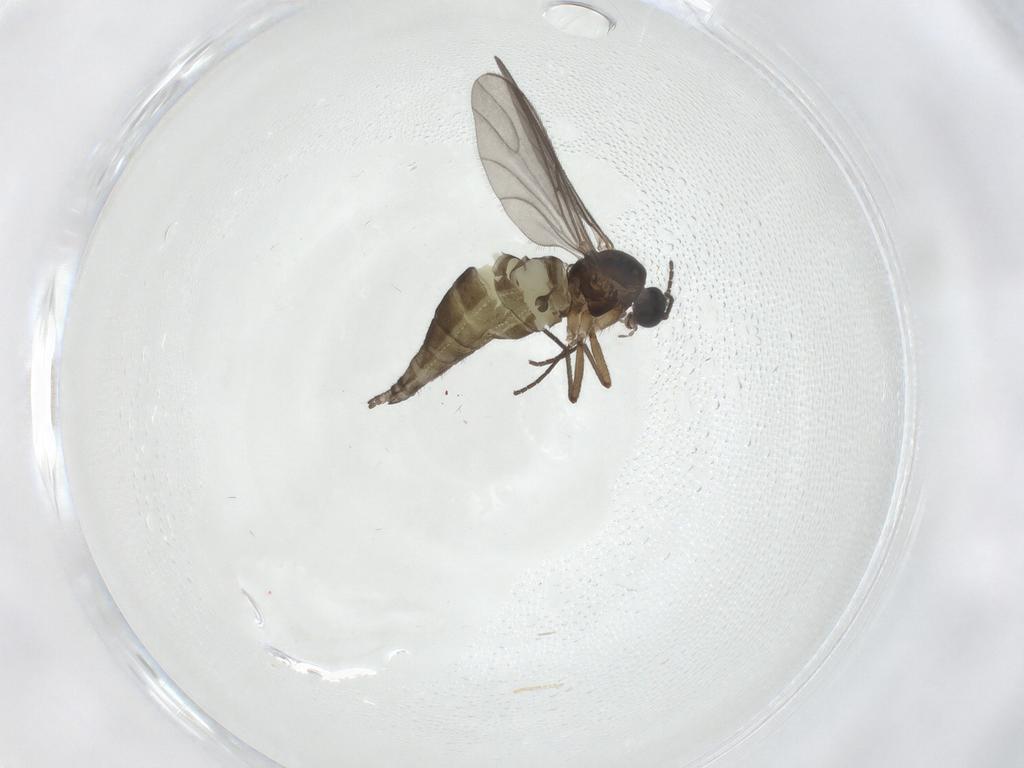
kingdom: Animalia
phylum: Arthropoda
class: Insecta
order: Diptera
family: Sciaridae
